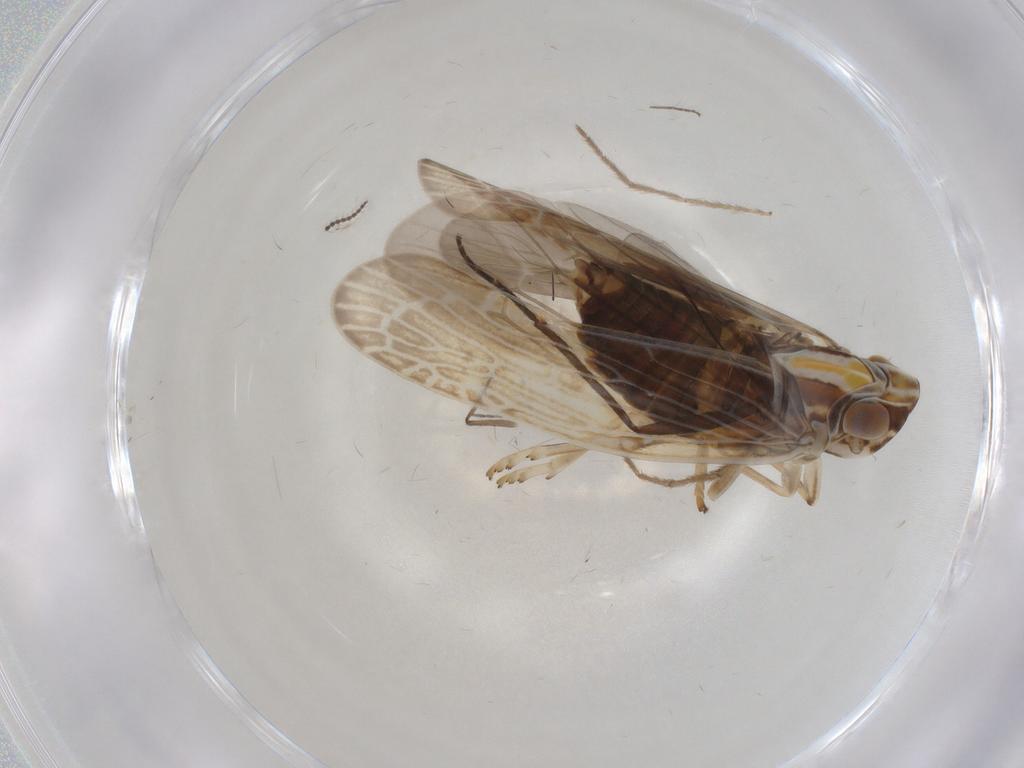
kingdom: Animalia
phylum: Arthropoda
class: Insecta
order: Hemiptera
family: Achilidae
